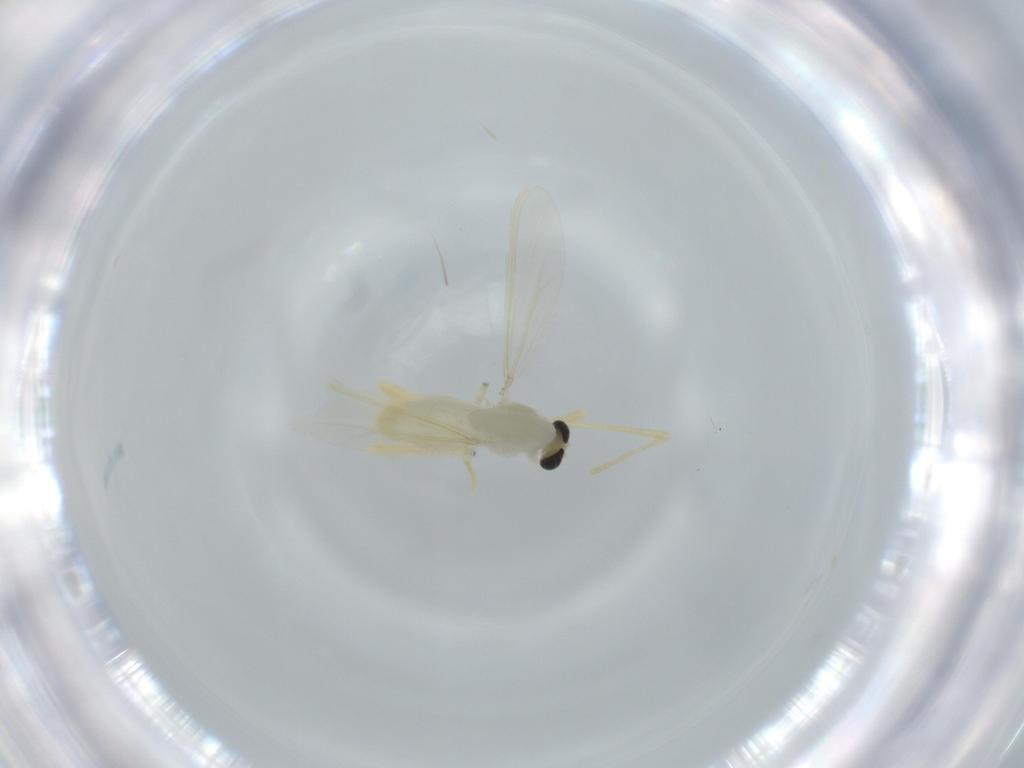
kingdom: Animalia
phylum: Arthropoda
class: Insecta
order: Diptera
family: Chironomidae
